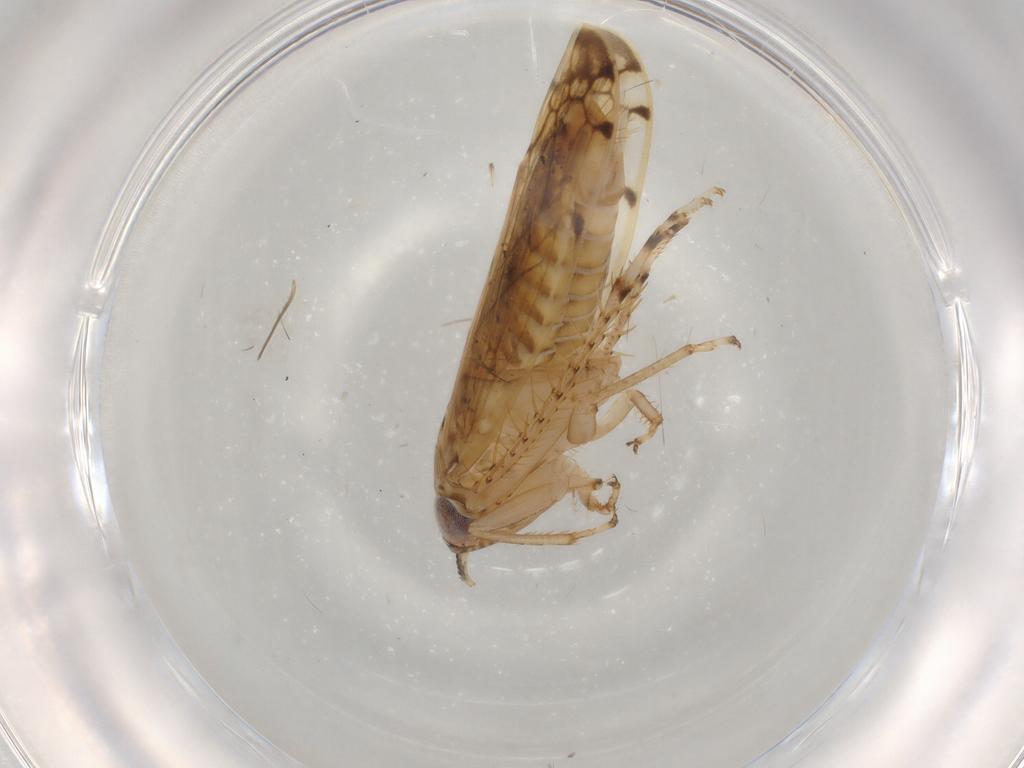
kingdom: Animalia
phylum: Arthropoda
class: Insecta
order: Hemiptera
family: Cicadellidae
